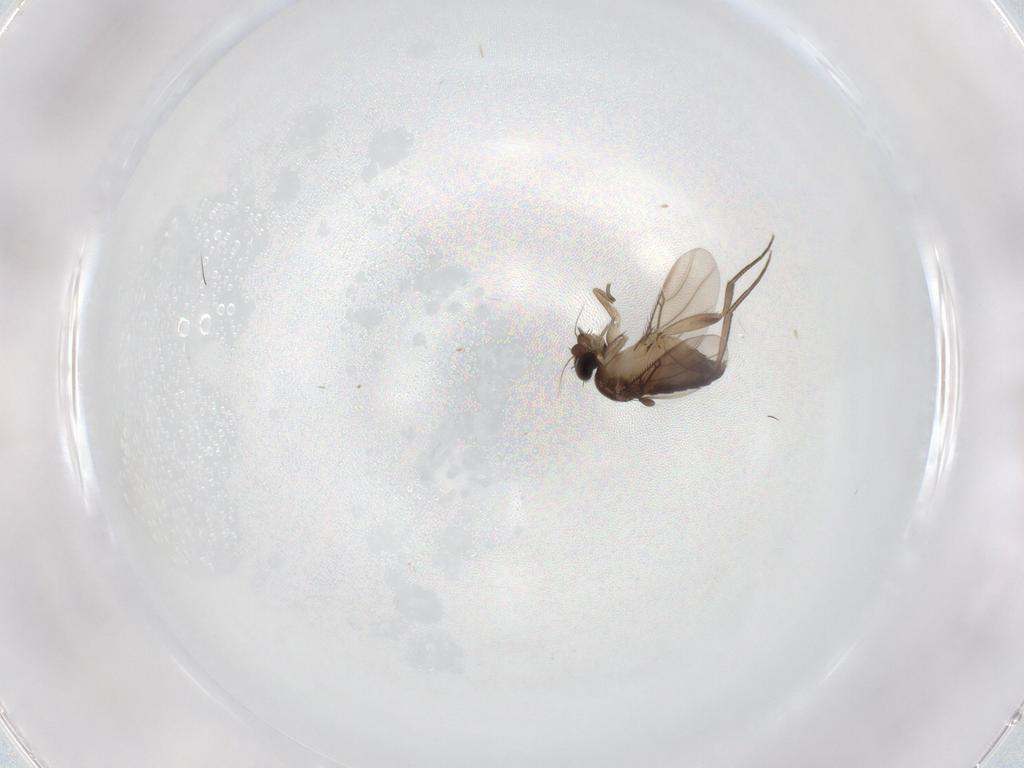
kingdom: Animalia
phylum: Arthropoda
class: Insecta
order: Diptera
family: Phoridae
